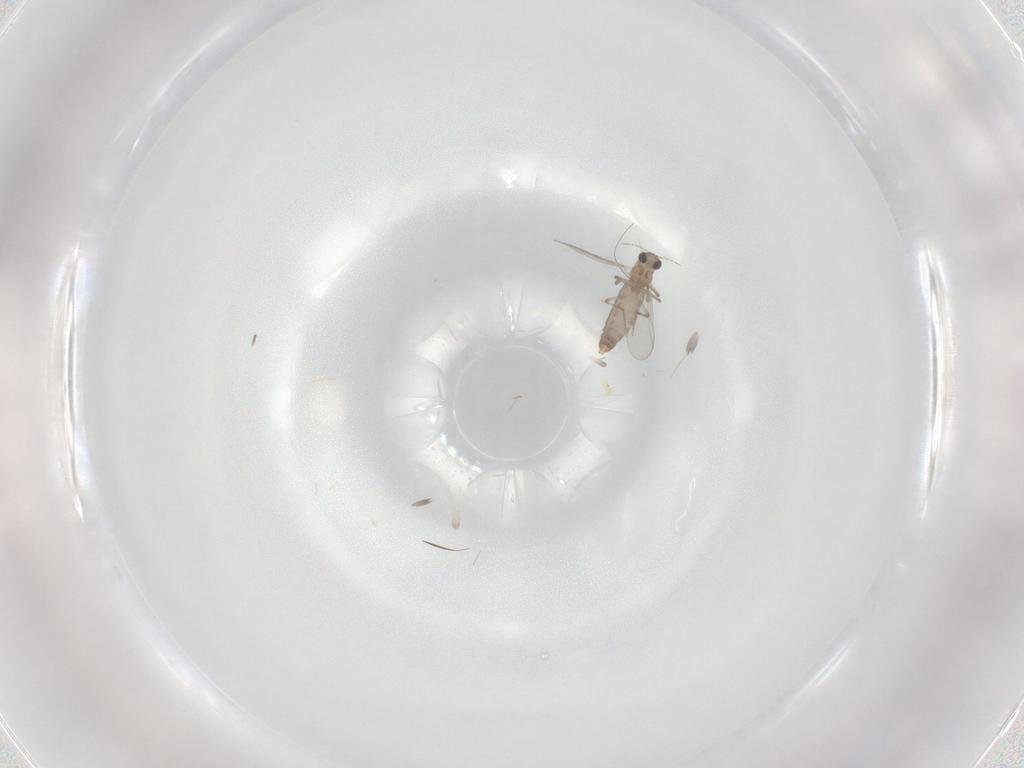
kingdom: Animalia
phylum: Arthropoda
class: Insecta
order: Diptera
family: Chironomidae
